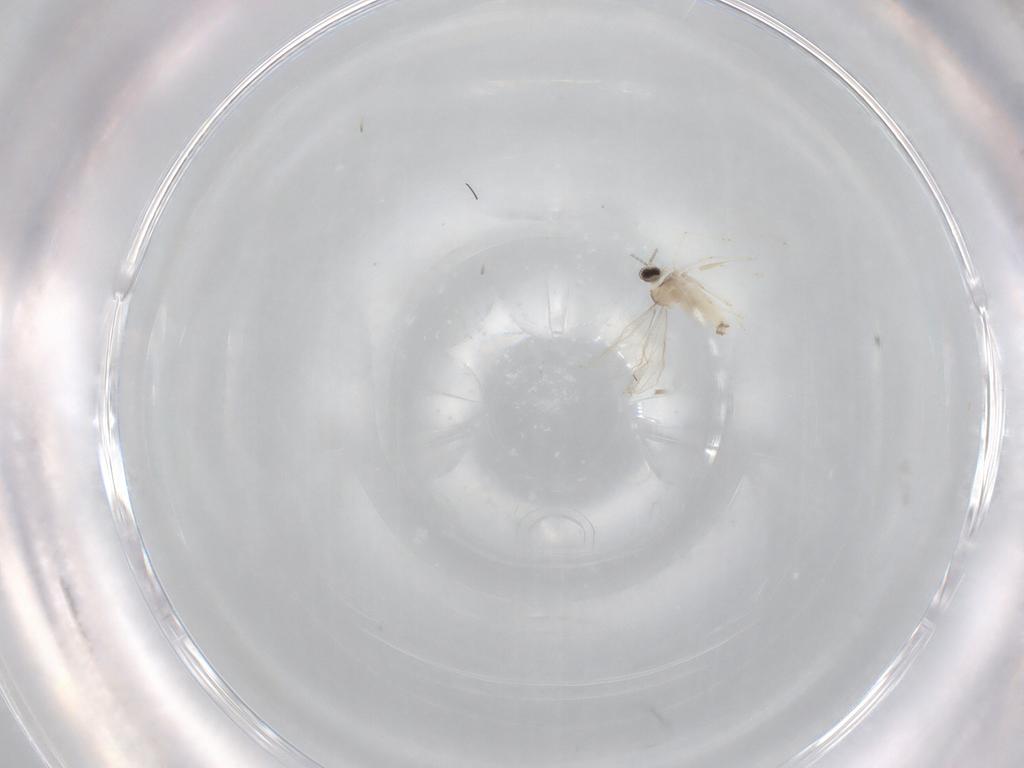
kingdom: Animalia
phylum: Arthropoda
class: Insecta
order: Diptera
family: Cecidomyiidae
